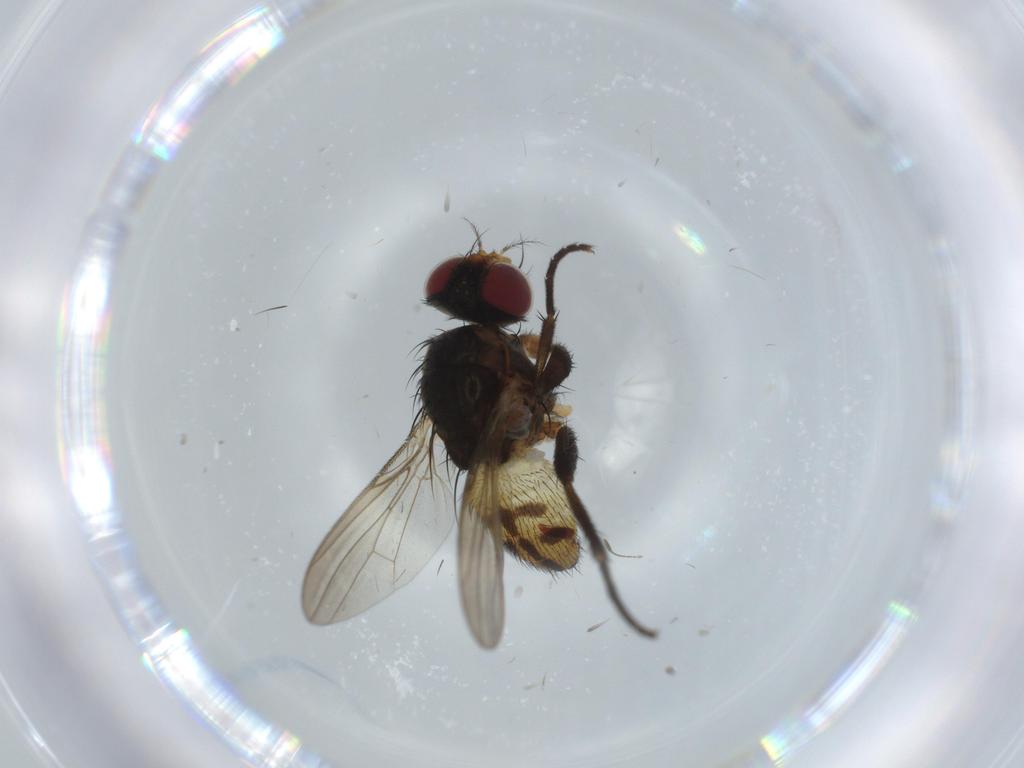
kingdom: Animalia
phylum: Arthropoda
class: Insecta
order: Diptera
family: Anthomyiidae
